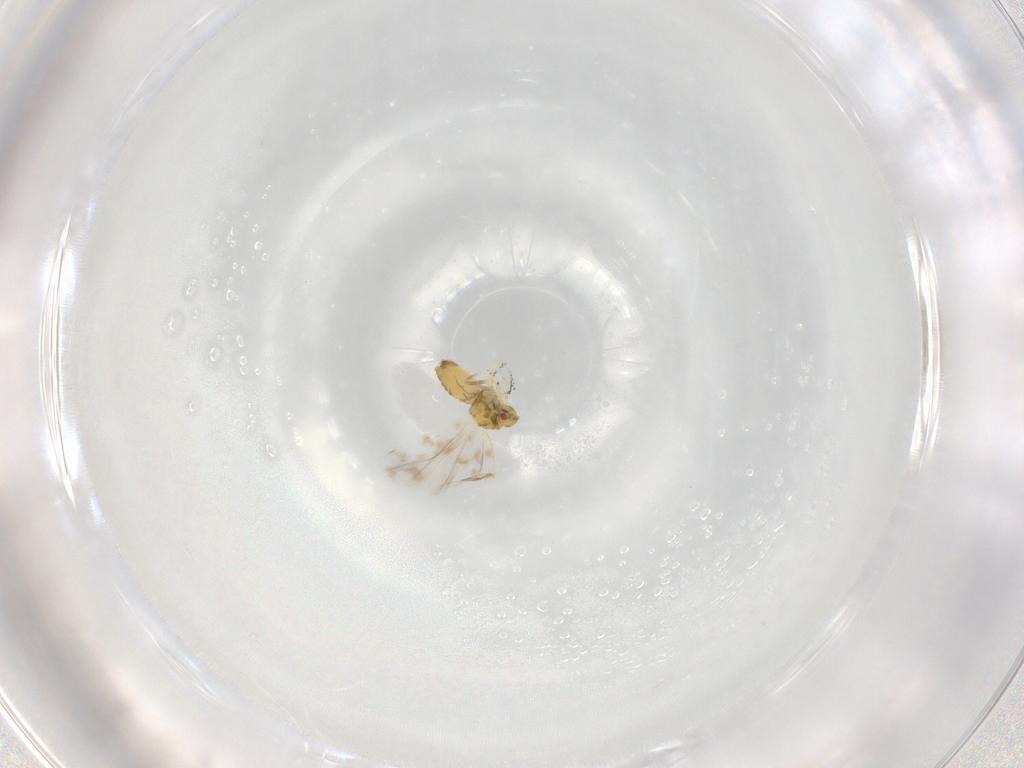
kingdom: Animalia
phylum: Arthropoda
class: Insecta
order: Hemiptera
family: Aleyrodidae
